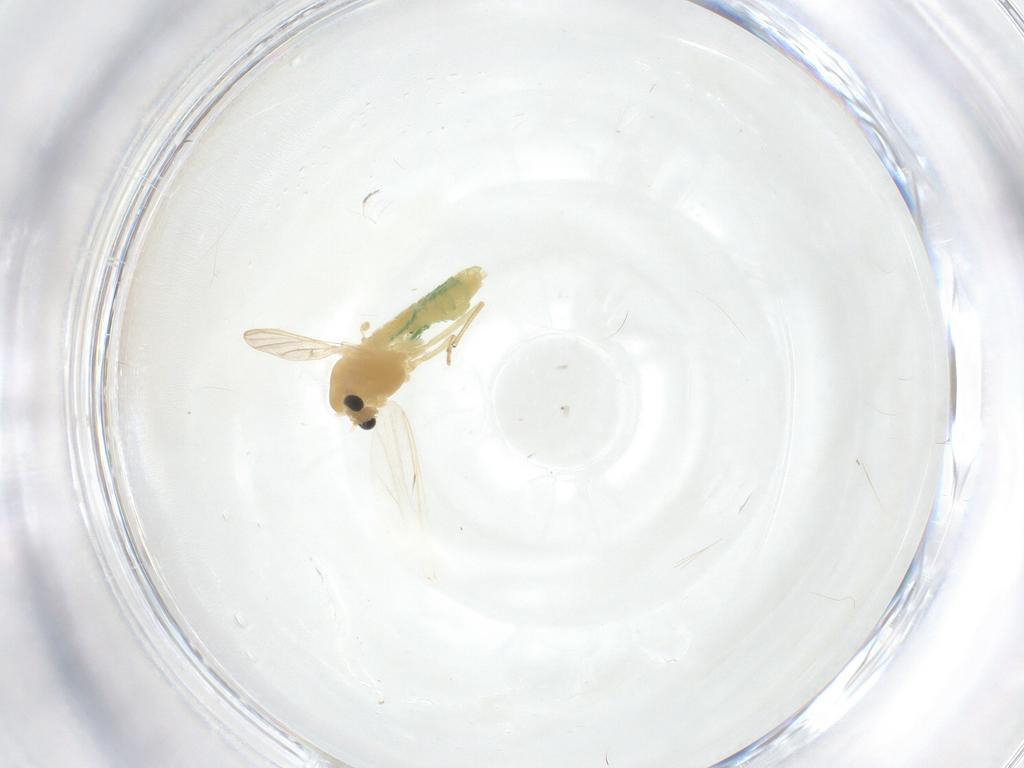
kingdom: Animalia
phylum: Arthropoda
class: Insecta
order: Diptera
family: Chironomidae
